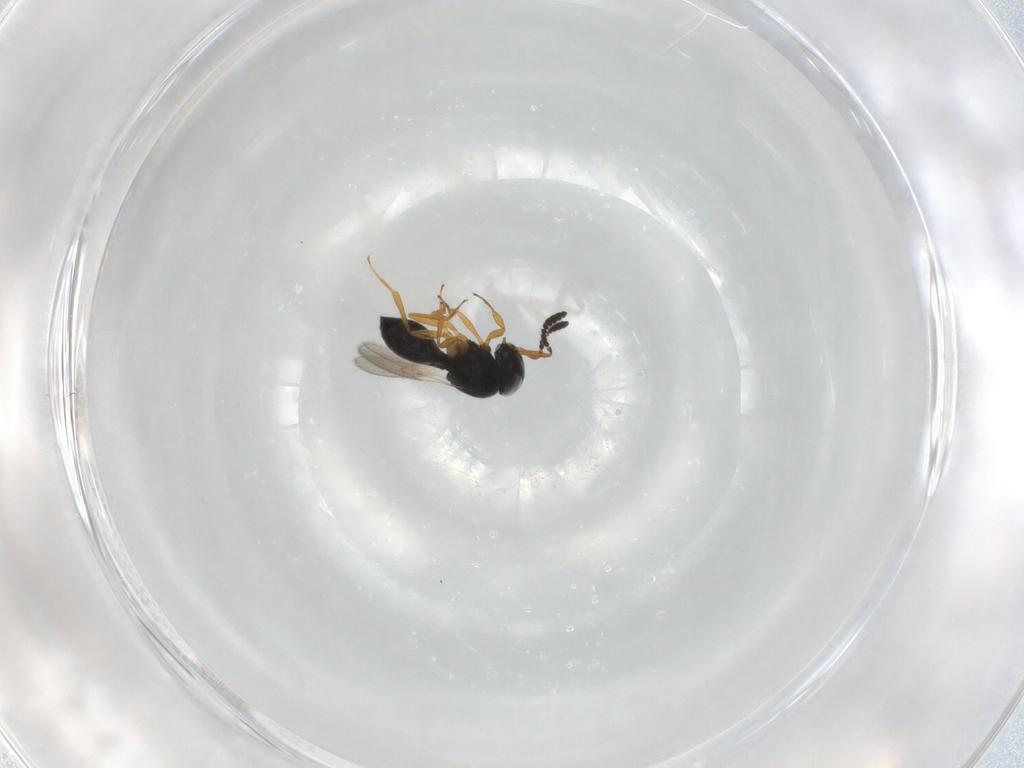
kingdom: Animalia
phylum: Arthropoda
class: Insecta
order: Hymenoptera
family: Scelionidae
